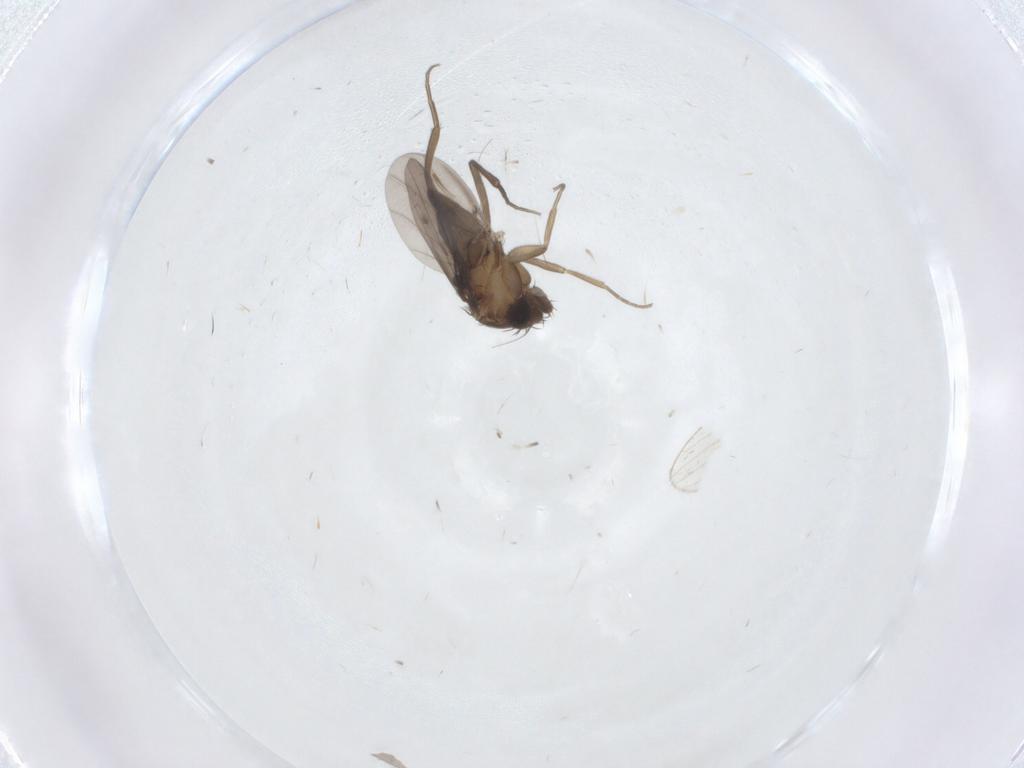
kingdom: Animalia
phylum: Arthropoda
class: Insecta
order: Diptera
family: Phoridae
